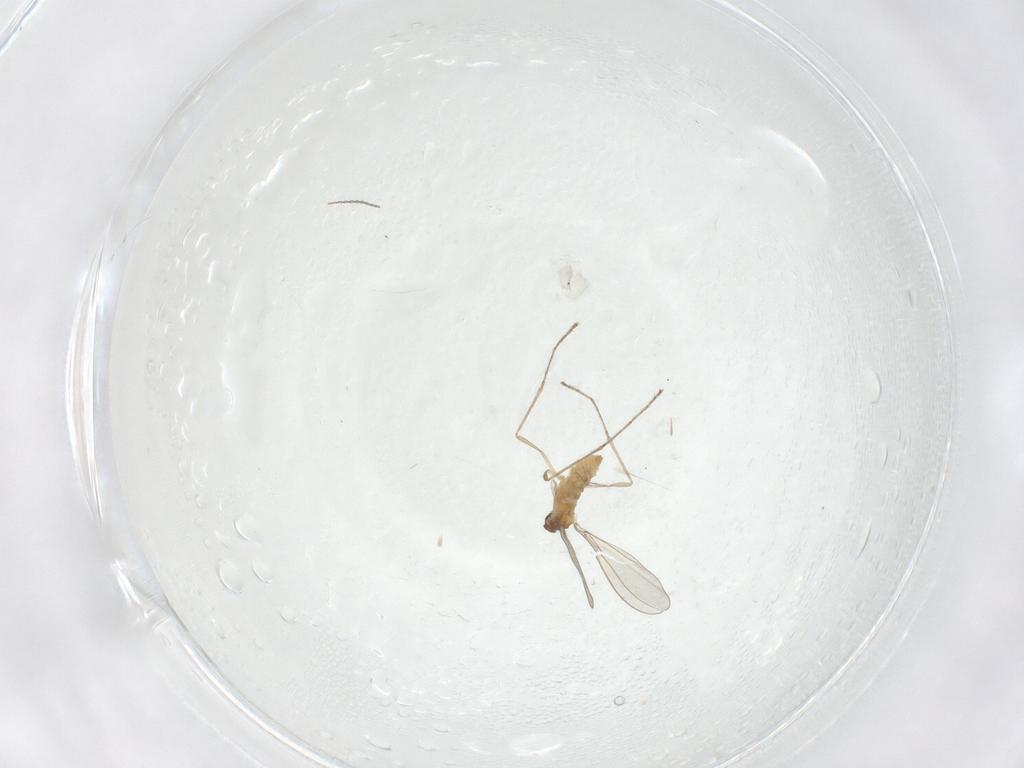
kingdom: Animalia
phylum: Arthropoda
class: Insecta
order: Diptera
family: Cecidomyiidae
